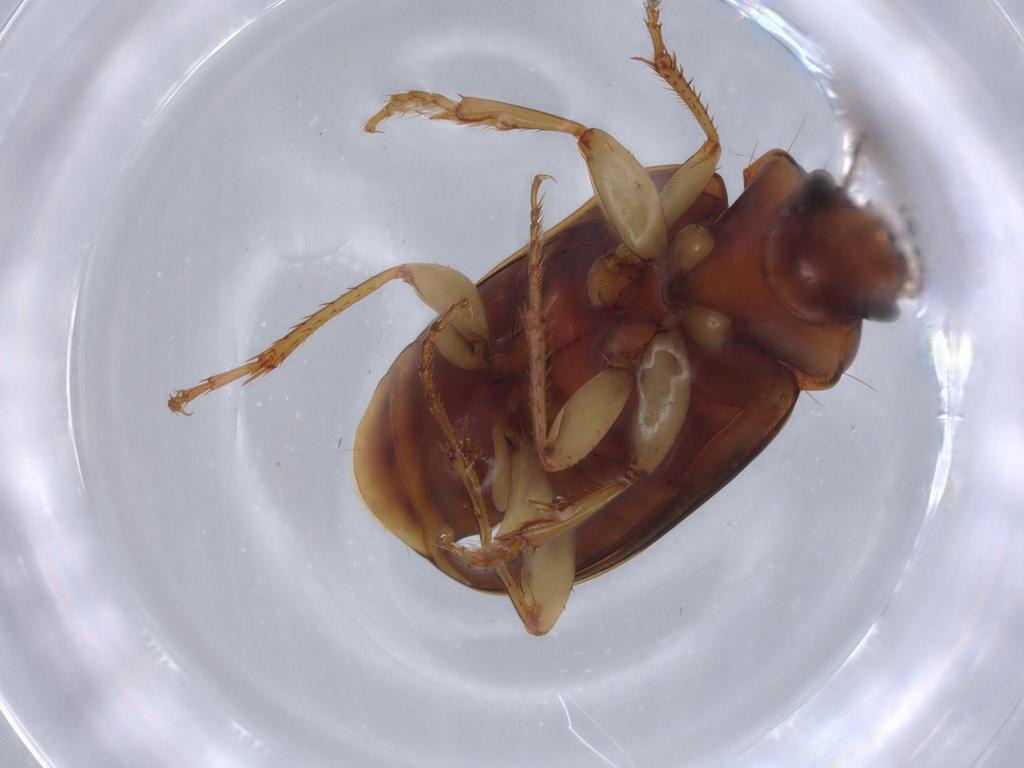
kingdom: Animalia
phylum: Arthropoda
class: Insecta
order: Coleoptera
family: Carabidae
